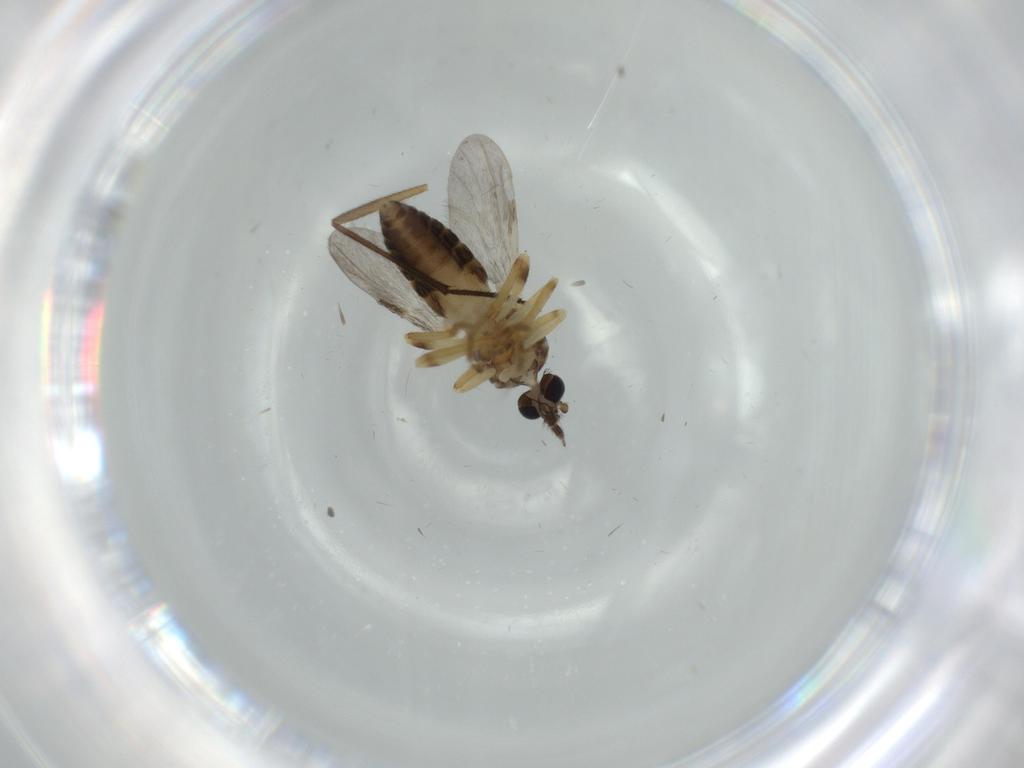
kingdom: Animalia
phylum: Arthropoda
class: Insecta
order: Diptera
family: Ceratopogonidae
